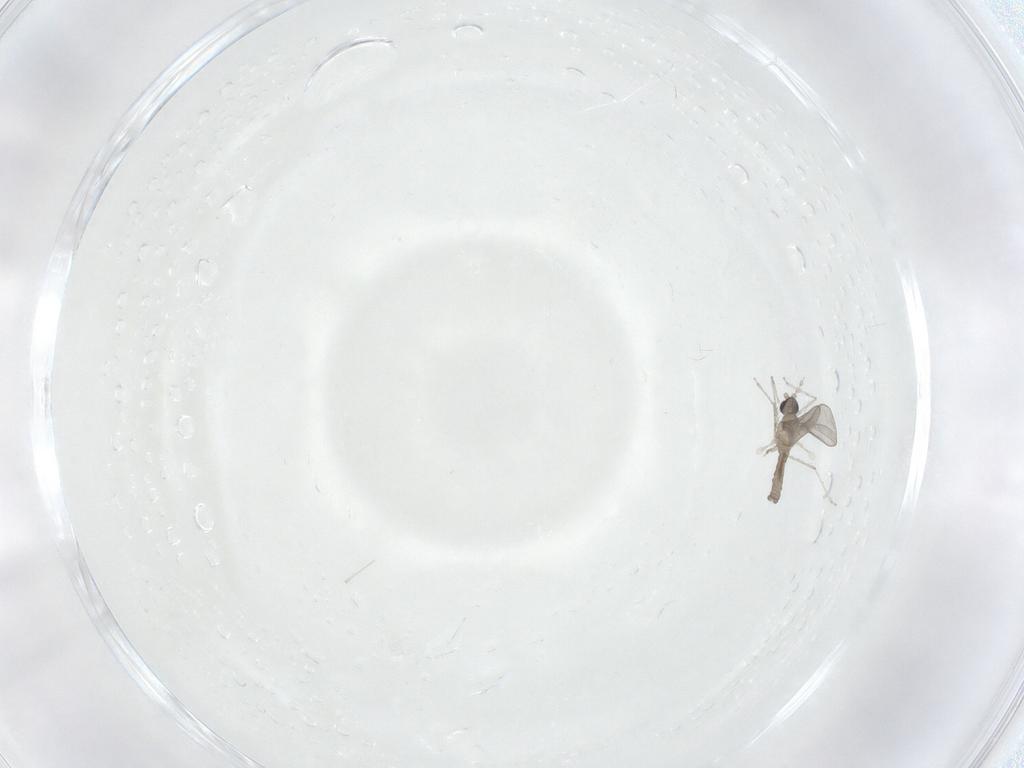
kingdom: Animalia
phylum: Arthropoda
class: Insecta
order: Diptera
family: Cecidomyiidae
